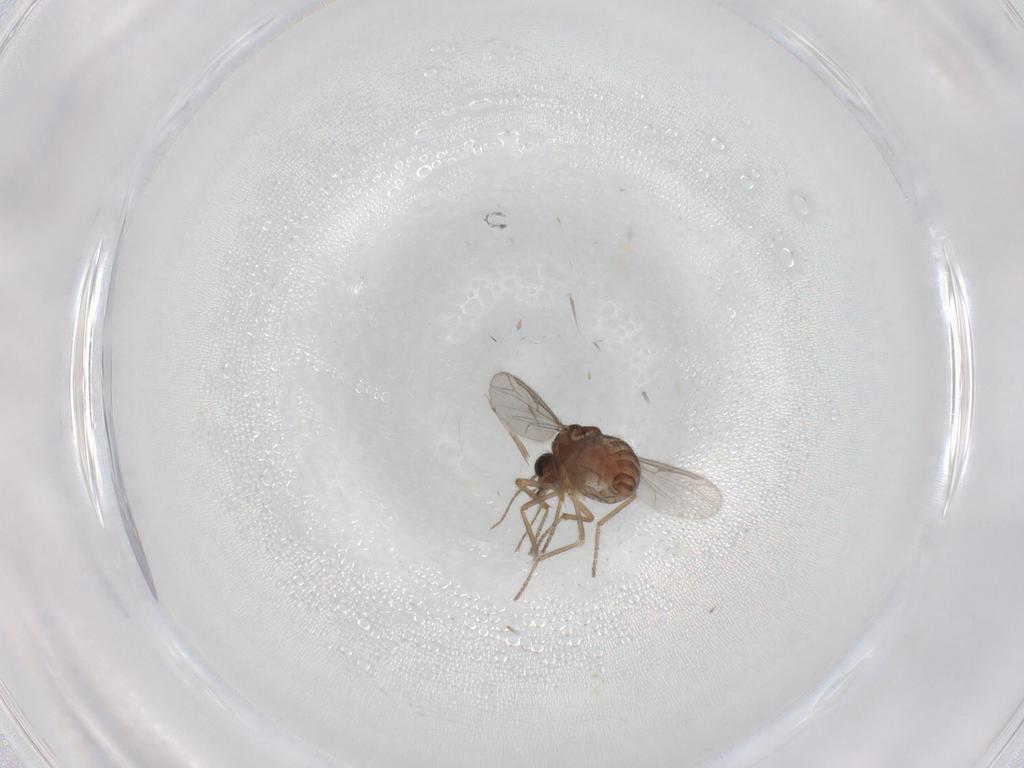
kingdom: Animalia
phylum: Arthropoda
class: Insecta
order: Diptera
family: Ceratopogonidae
